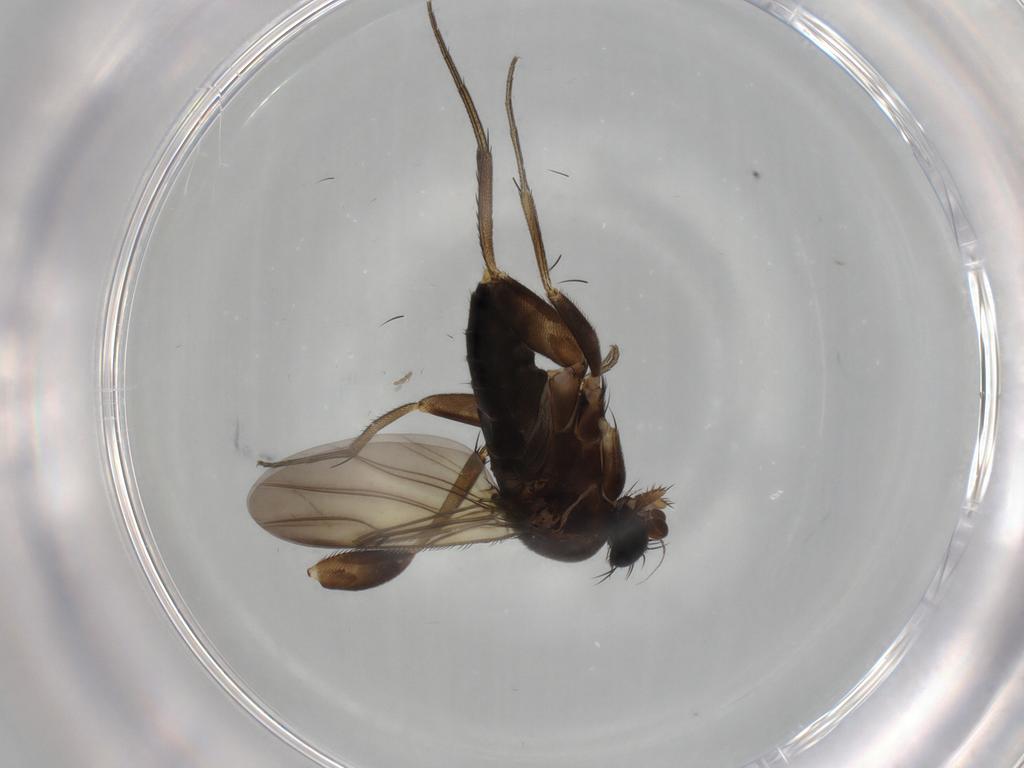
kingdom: Animalia
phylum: Arthropoda
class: Insecta
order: Diptera
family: Phoridae
